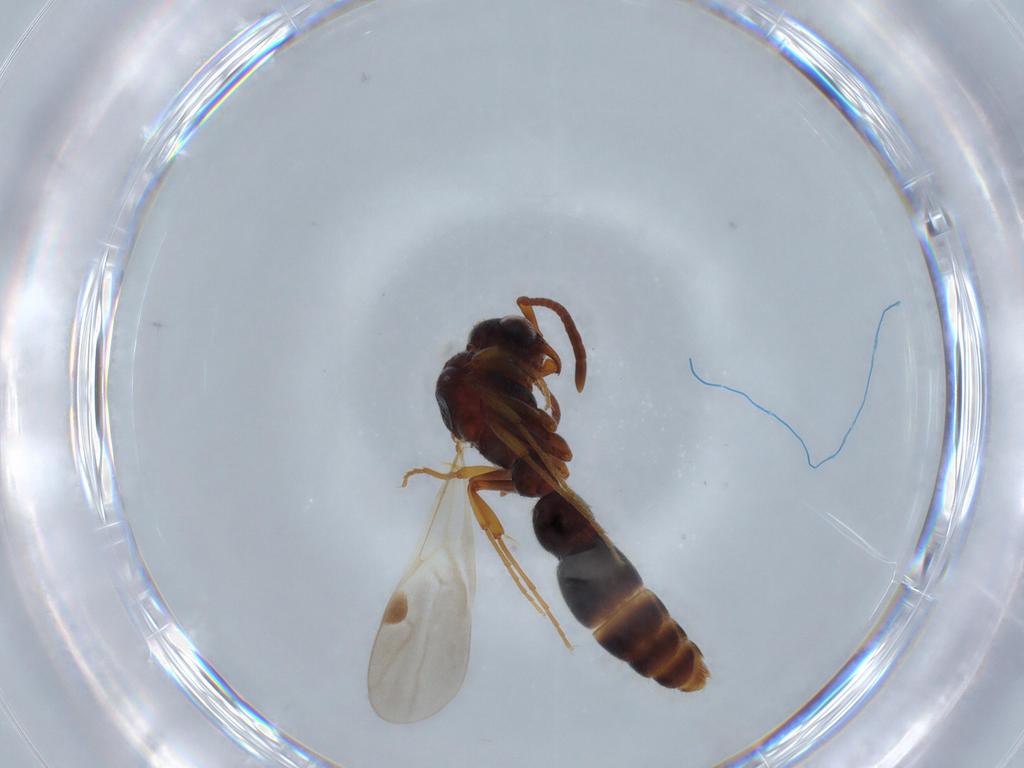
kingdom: Animalia
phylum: Arthropoda
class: Insecta
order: Hymenoptera
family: Formicidae
